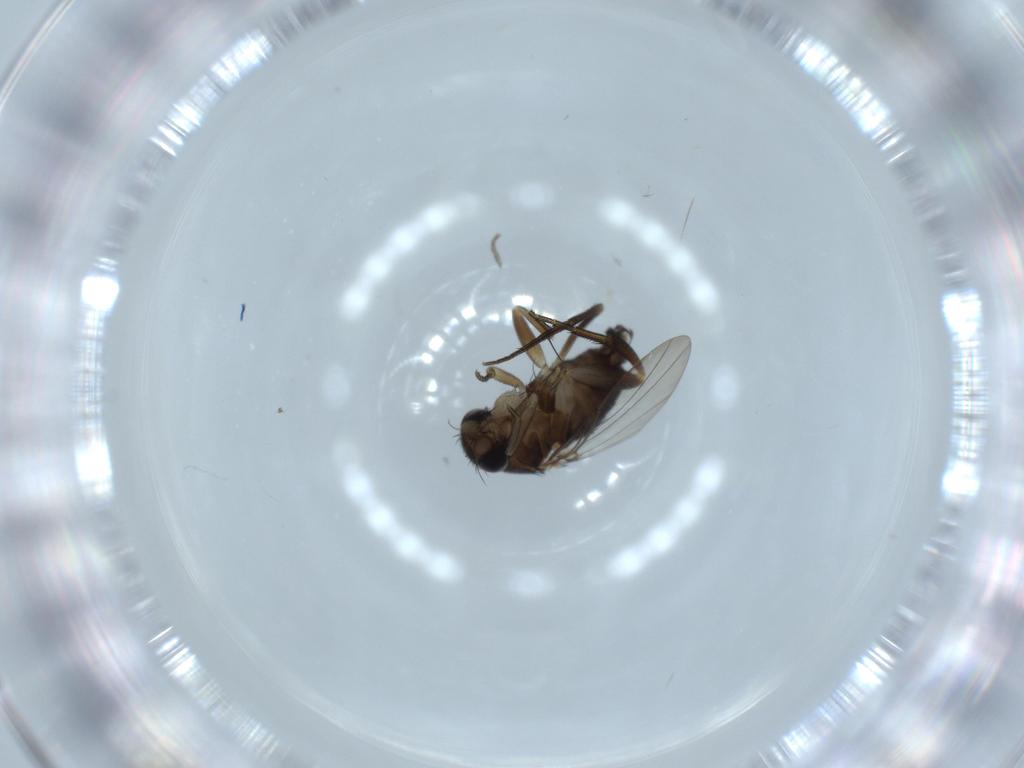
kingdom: Animalia
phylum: Arthropoda
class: Insecta
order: Diptera
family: Phoridae
